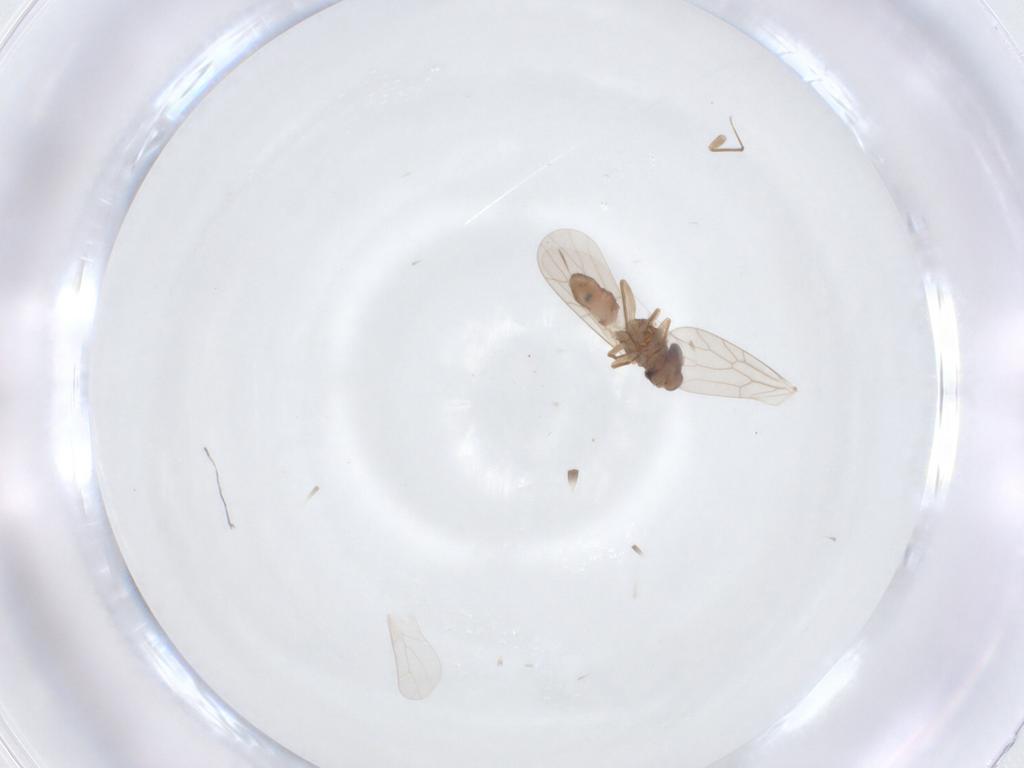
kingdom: Animalia
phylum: Arthropoda
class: Insecta
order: Psocodea
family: Lepidopsocidae
